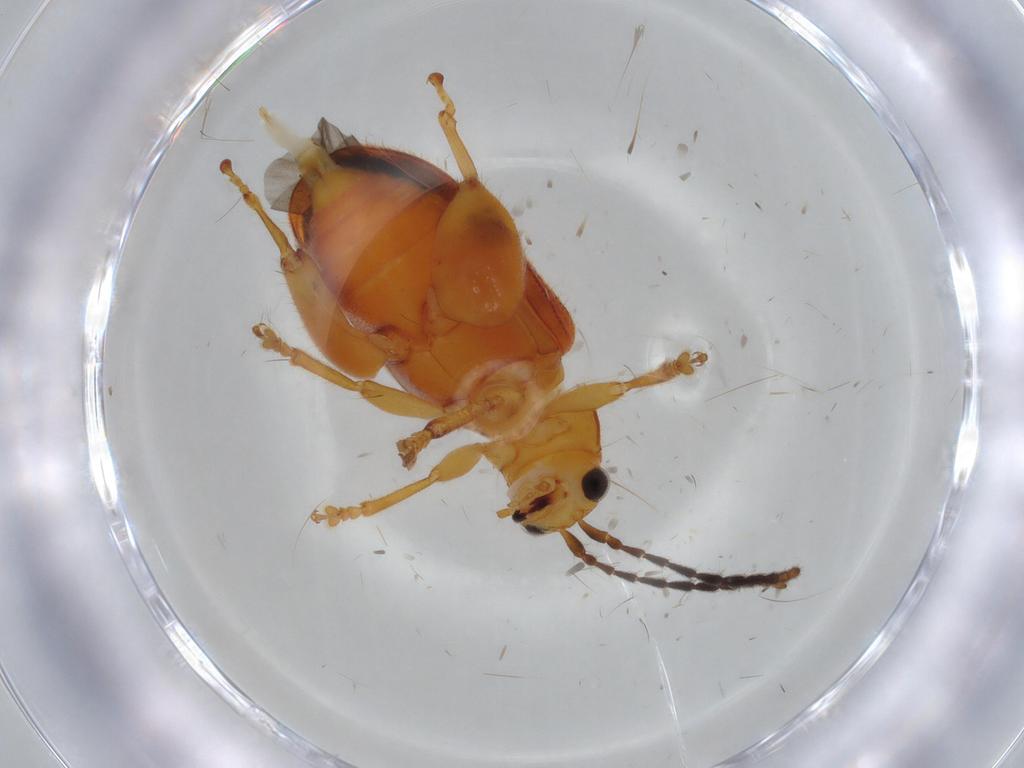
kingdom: Animalia
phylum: Arthropoda
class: Insecta
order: Coleoptera
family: Chrysomelidae
